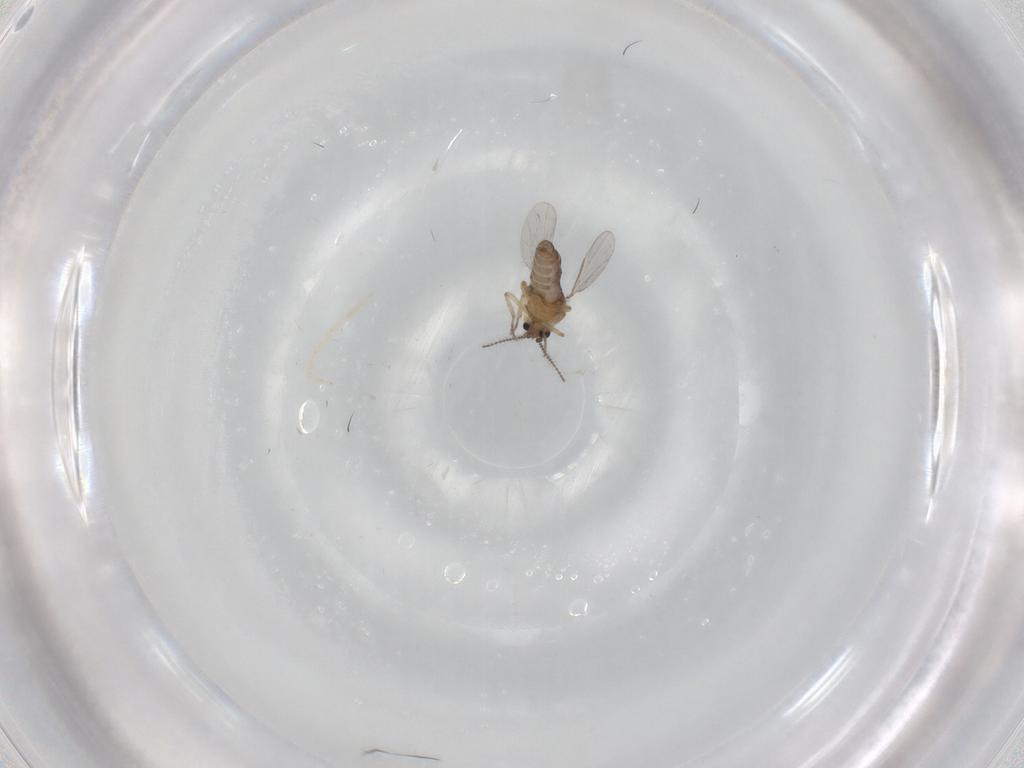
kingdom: Animalia
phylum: Arthropoda
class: Insecta
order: Diptera
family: Ceratopogonidae
